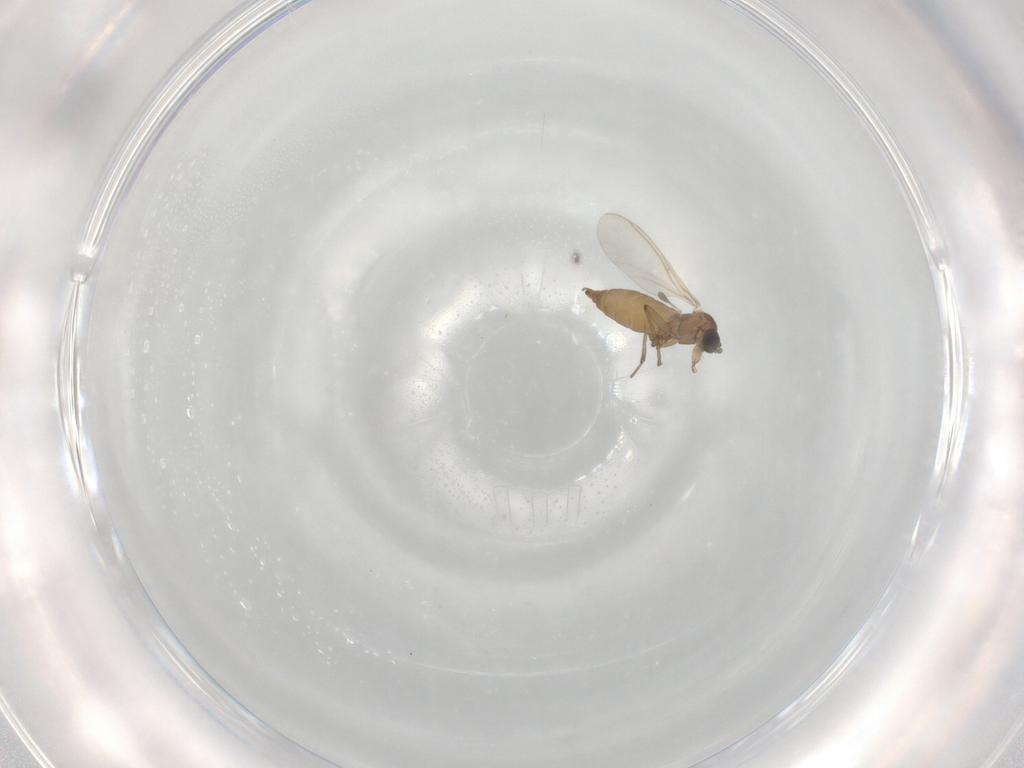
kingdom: Animalia
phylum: Arthropoda
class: Insecta
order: Diptera
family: Sciaridae
